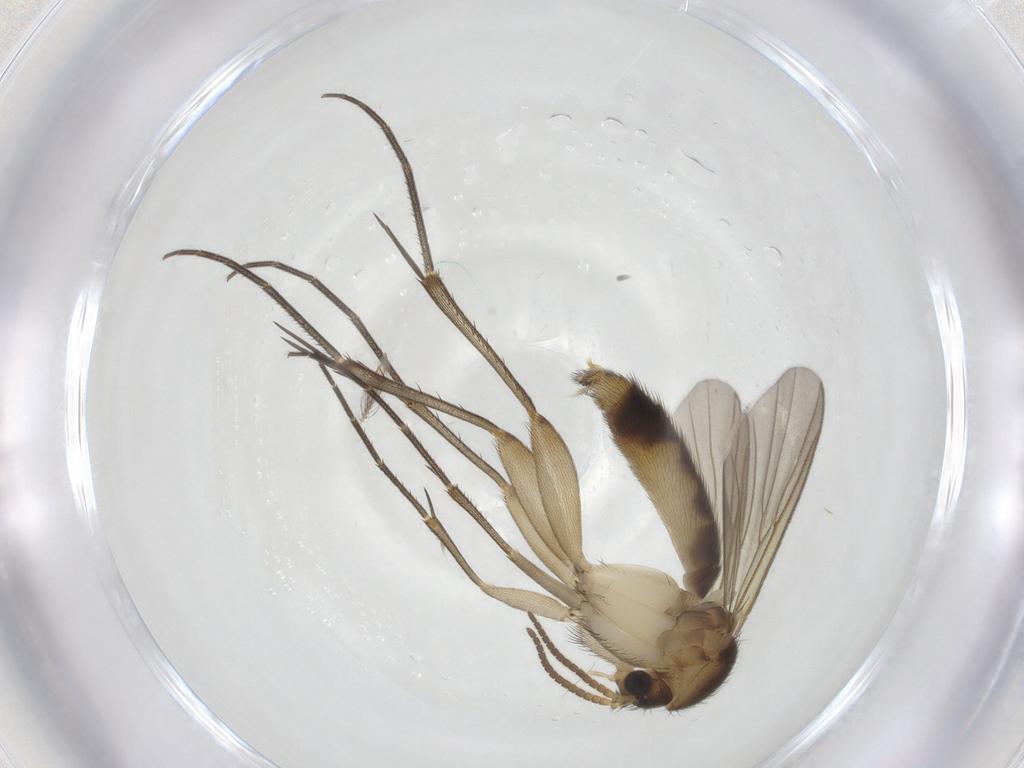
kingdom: Animalia
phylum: Arthropoda
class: Insecta
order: Diptera
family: Mycetophilidae
